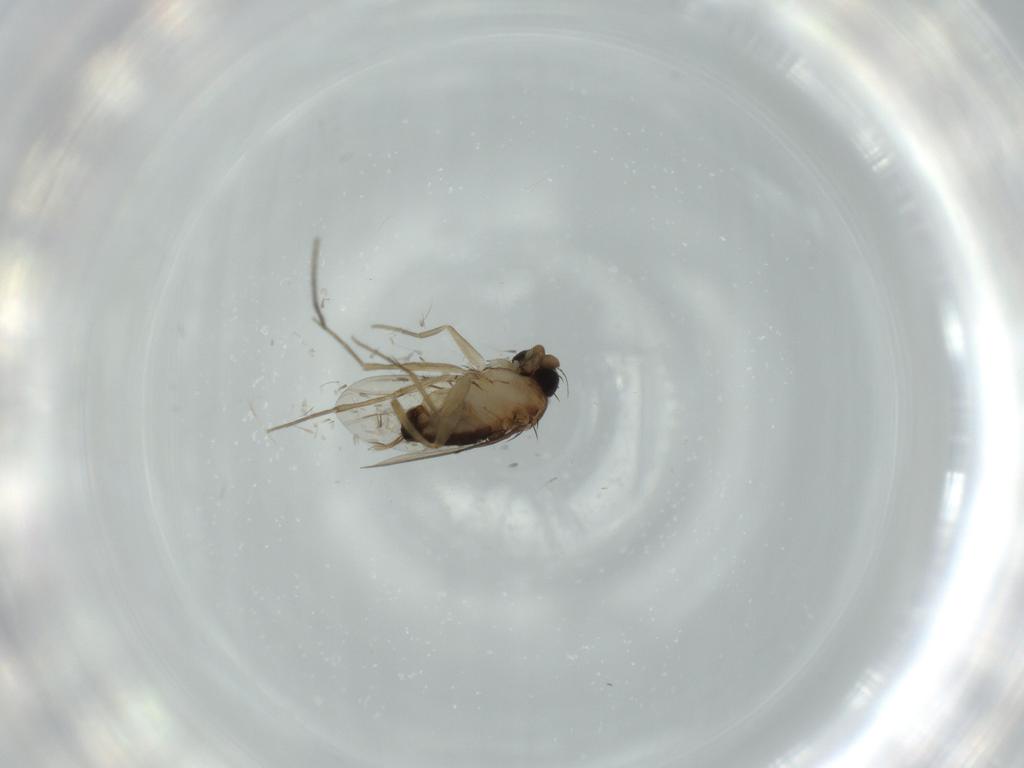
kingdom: Animalia
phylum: Arthropoda
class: Insecta
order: Diptera
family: Chironomidae
